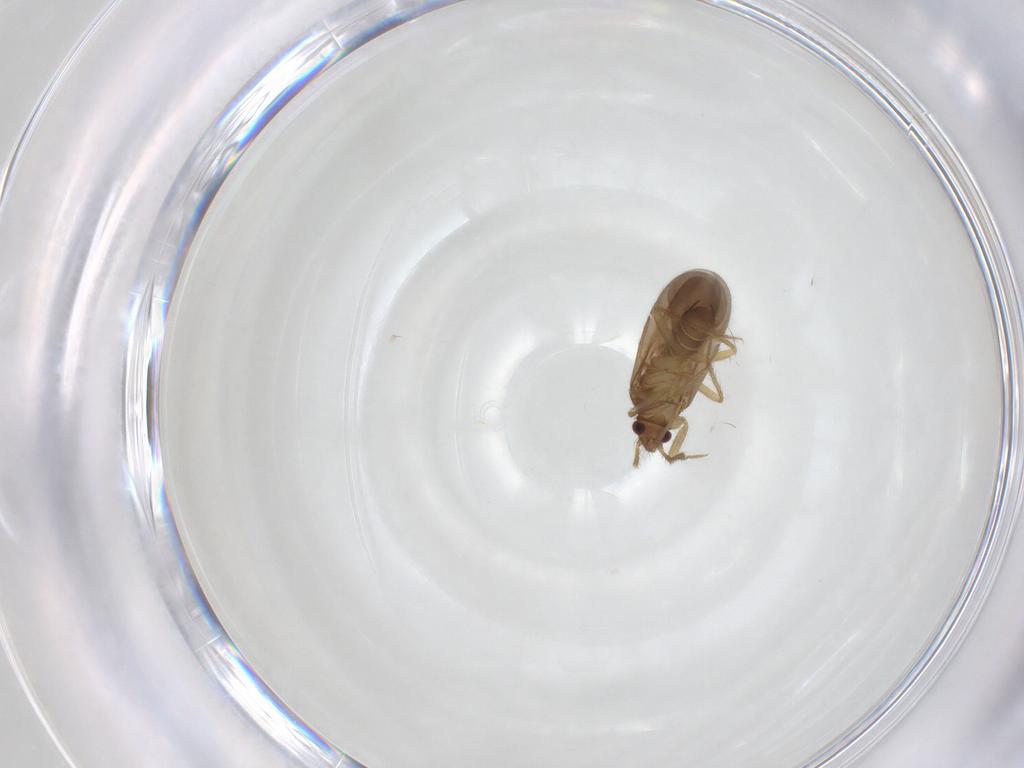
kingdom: Animalia
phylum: Arthropoda
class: Insecta
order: Hemiptera
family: Ceratocombidae
